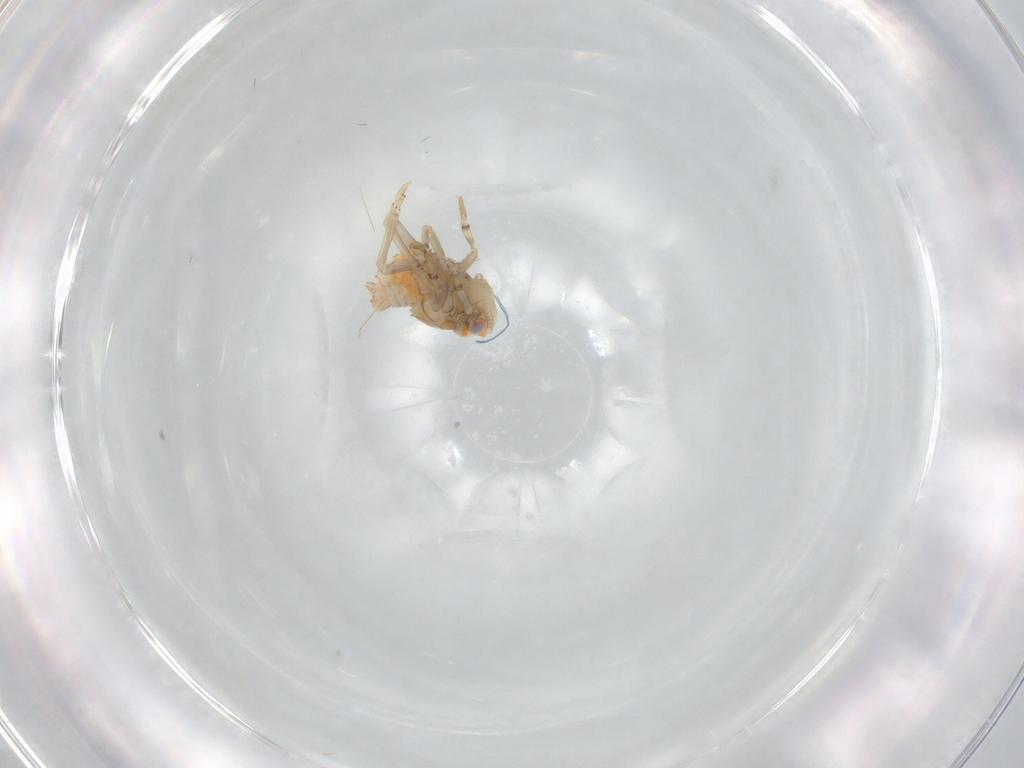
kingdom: Animalia
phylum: Arthropoda
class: Insecta
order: Hemiptera
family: Ricaniidae
